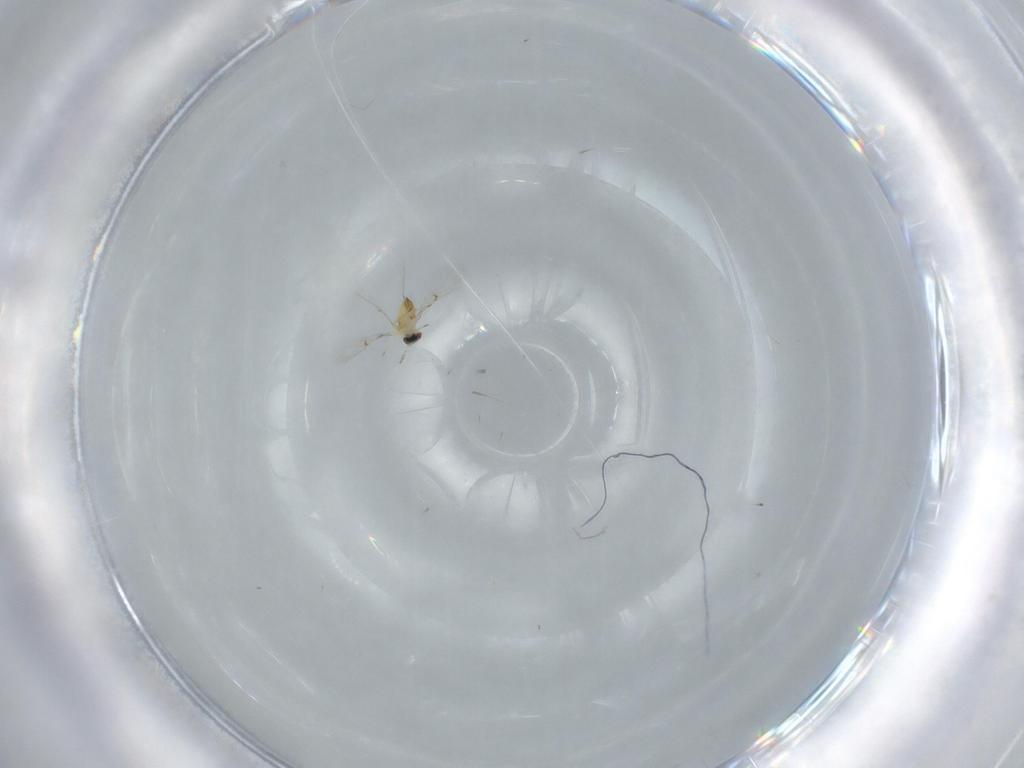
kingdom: Animalia
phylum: Arthropoda
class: Insecta
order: Hymenoptera
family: Trichogrammatidae
